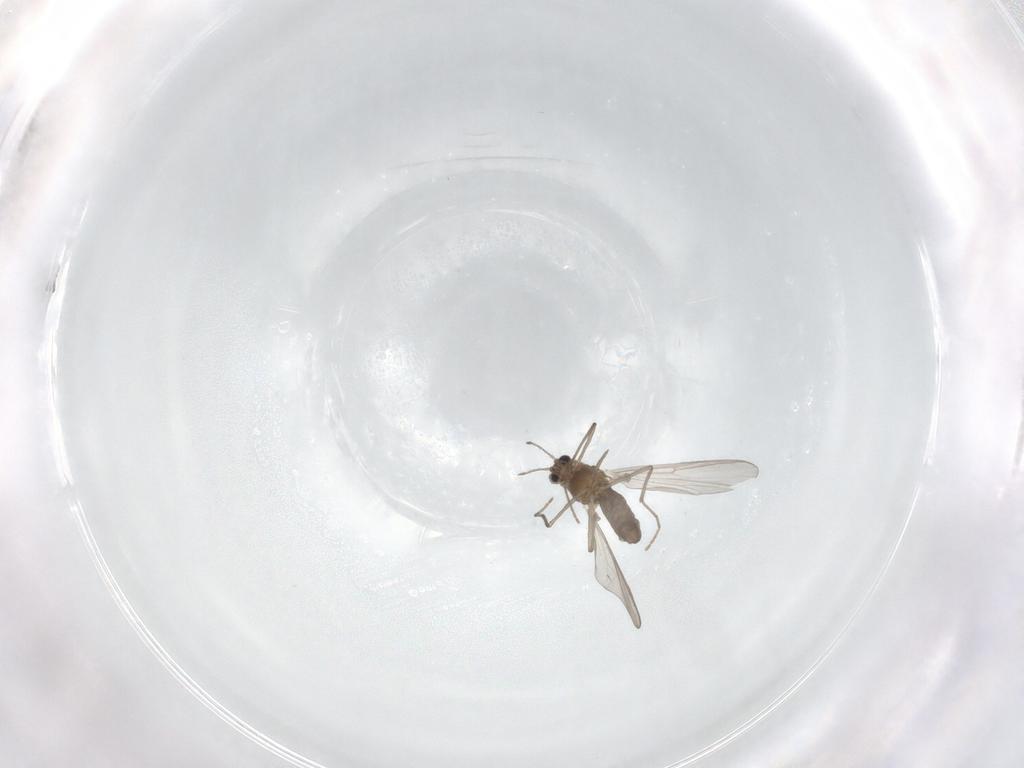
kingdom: Animalia
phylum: Arthropoda
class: Insecta
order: Diptera
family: Chironomidae
